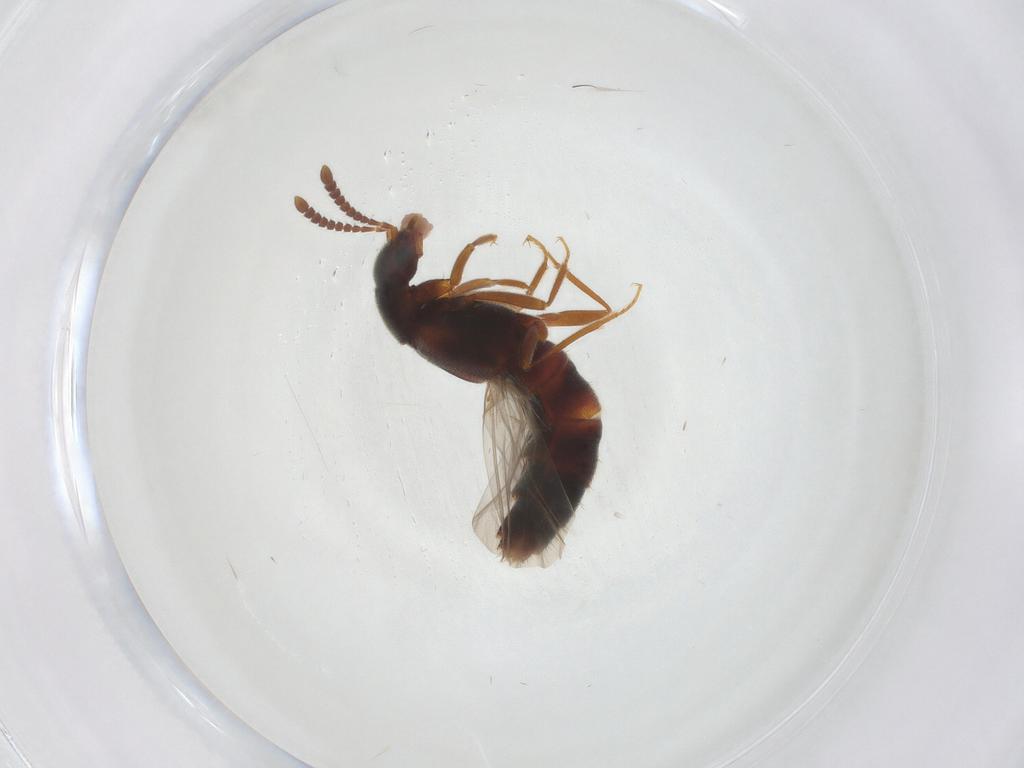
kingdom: Animalia
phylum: Arthropoda
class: Insecta
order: Coleoptera
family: Staphylinidae
